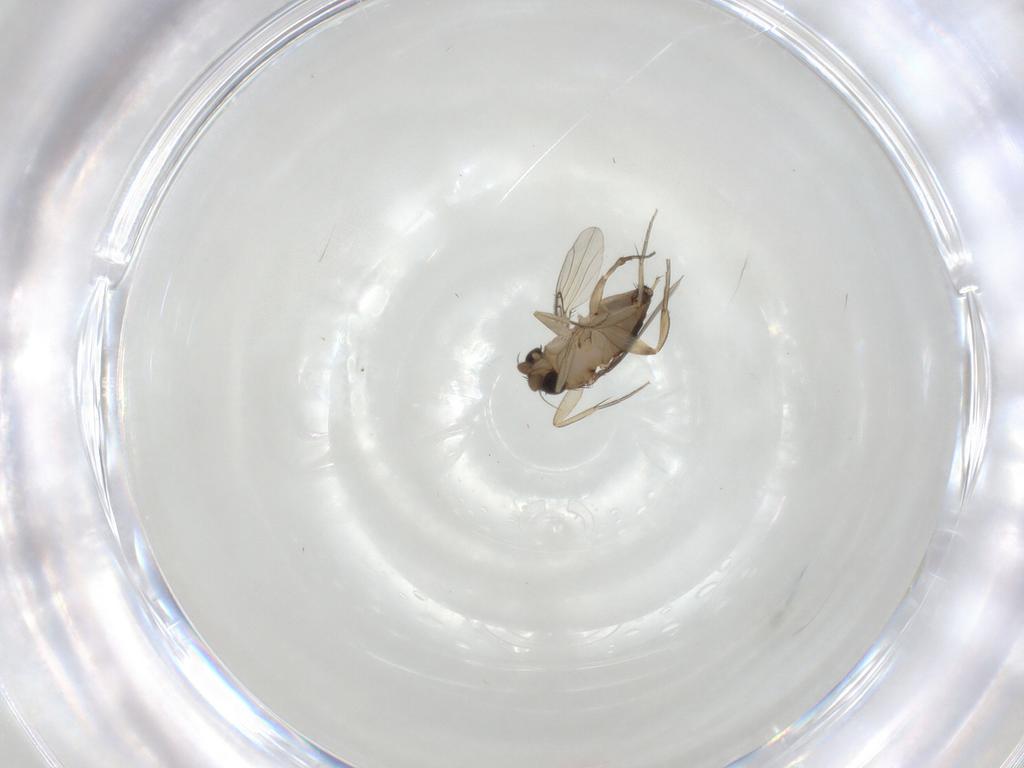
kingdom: Animalia
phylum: Arthropoda
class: Insecta
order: Diptera
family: Phoridae
